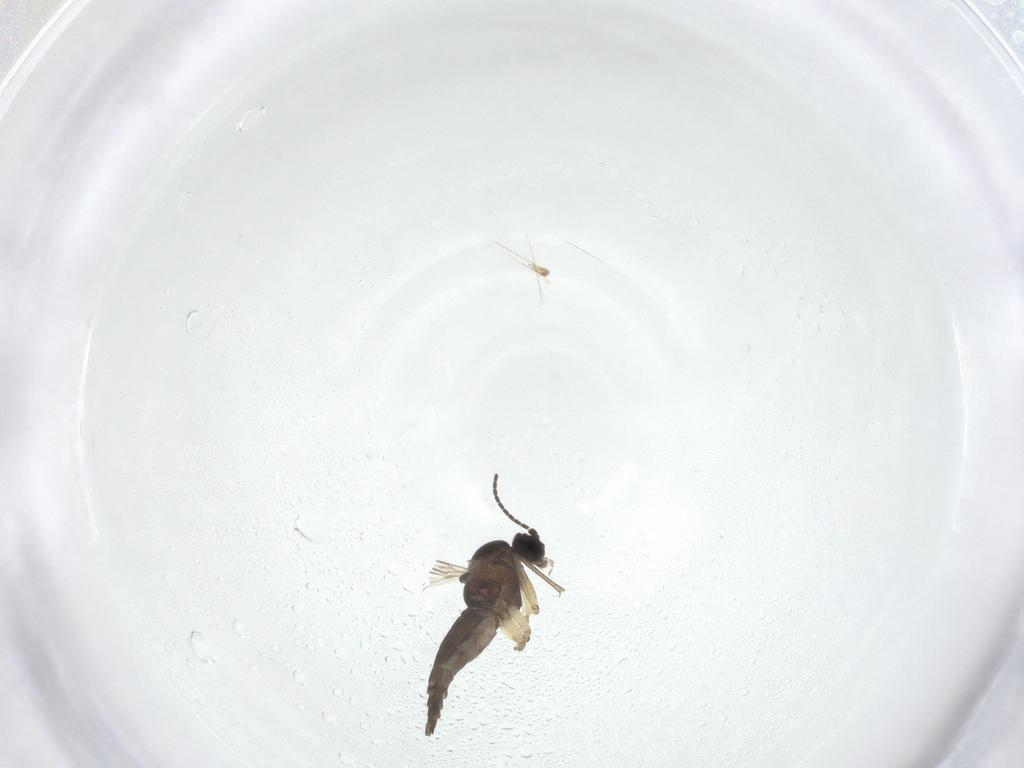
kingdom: Animalia
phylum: Arthropoda
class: Insecta
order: Diptera
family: Sciaridae
